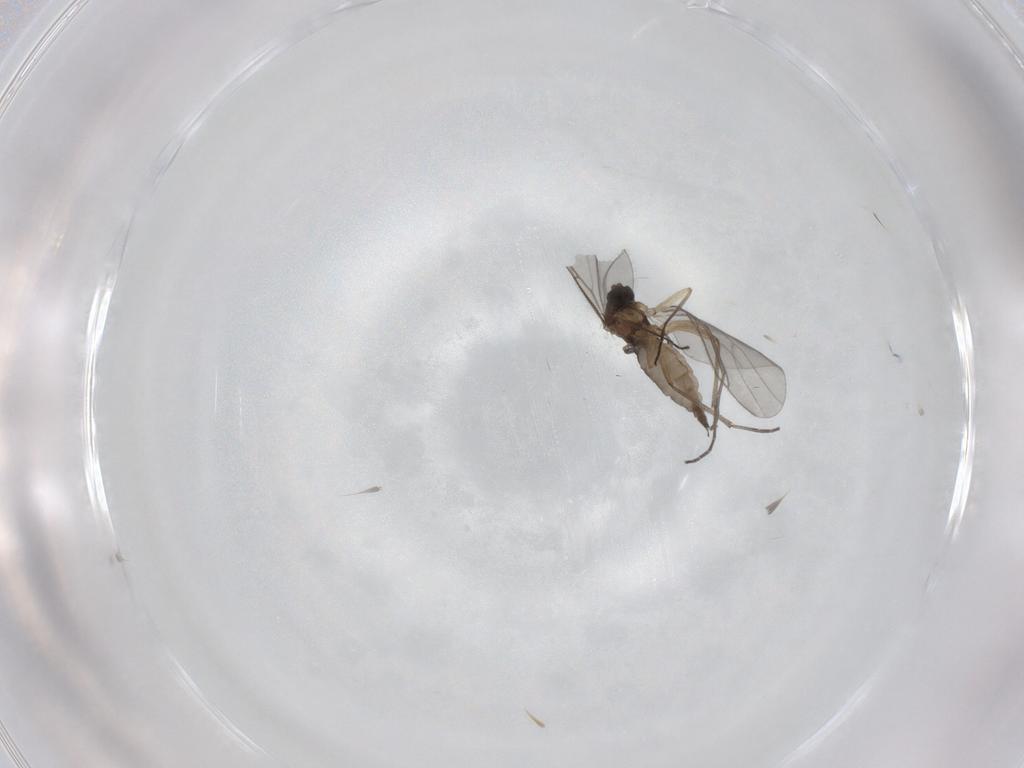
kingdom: Animalia
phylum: Arthropoda
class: Insecta
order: Diptera
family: Sciaridae
